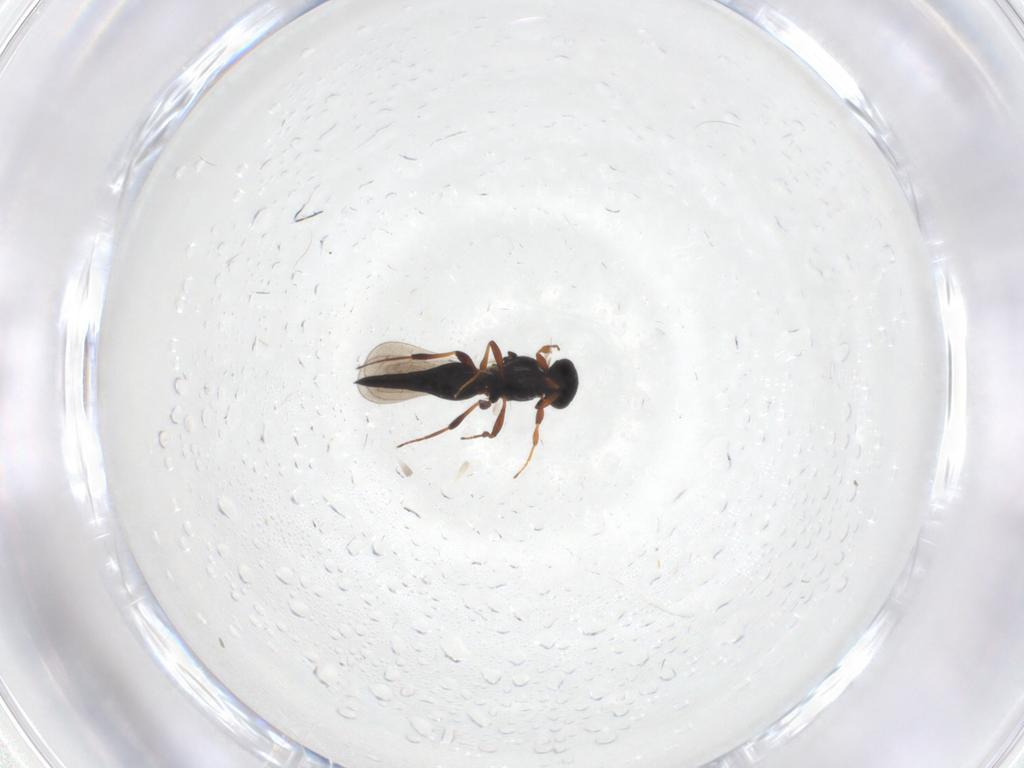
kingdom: Animalia
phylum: Arthropoda
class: Insecta
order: Hymenoptera
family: Platygastridae
